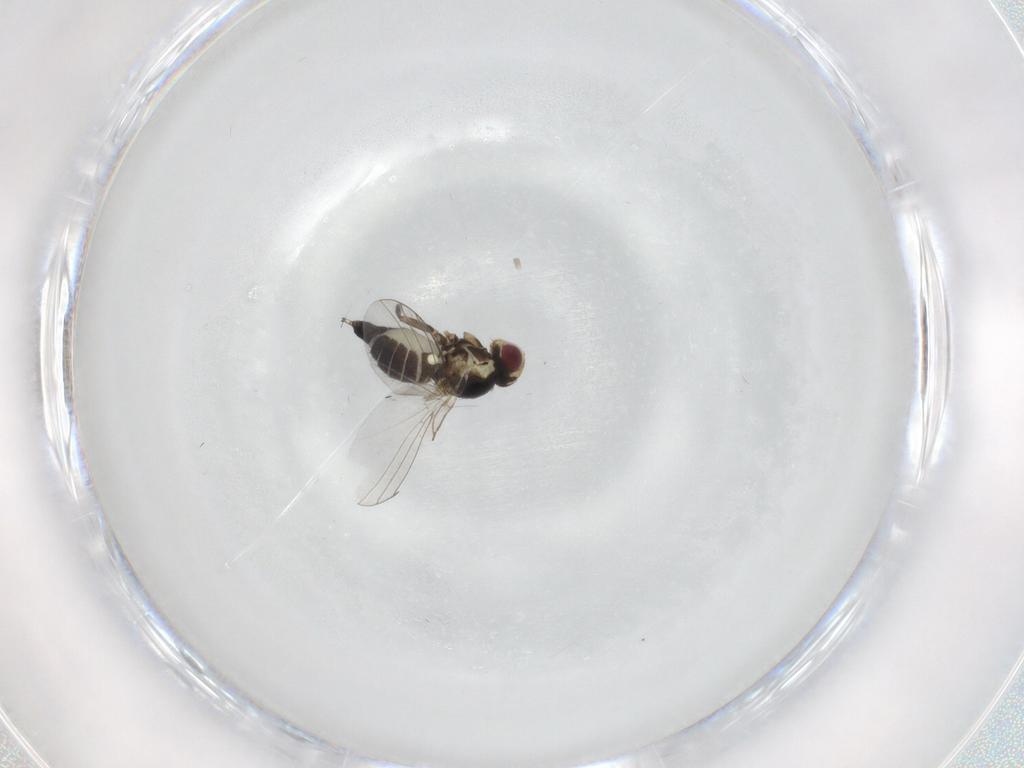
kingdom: Animalia
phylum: Arthropoda
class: Insecta
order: Diptera
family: Agromyzidae
